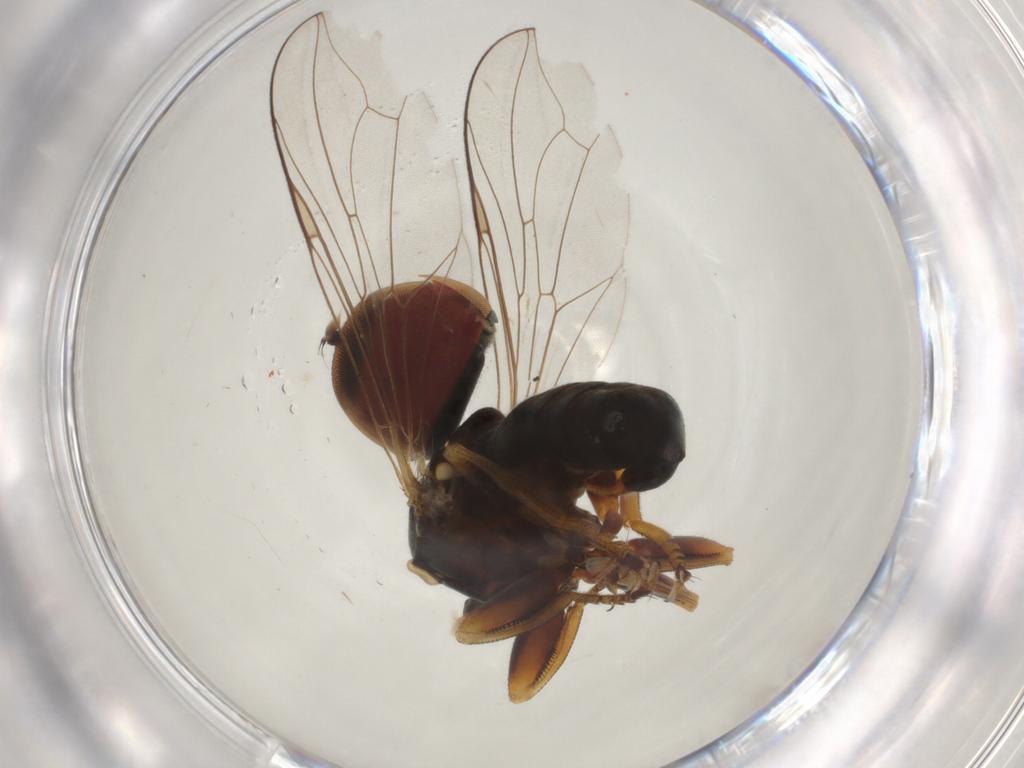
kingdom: Animalia
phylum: Arthropoda
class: Insecta
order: Diptera
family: Pipunculidae
